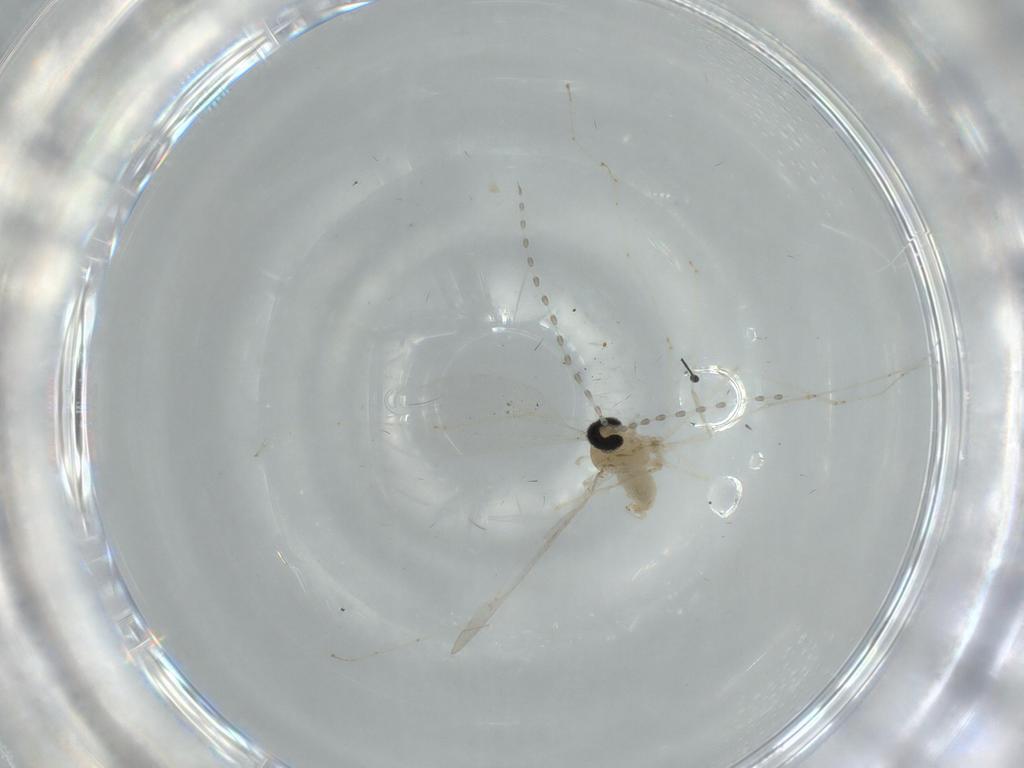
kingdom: Animalia
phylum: Arthropoda
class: Insecta
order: Diptera
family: Cecidomyiidae
